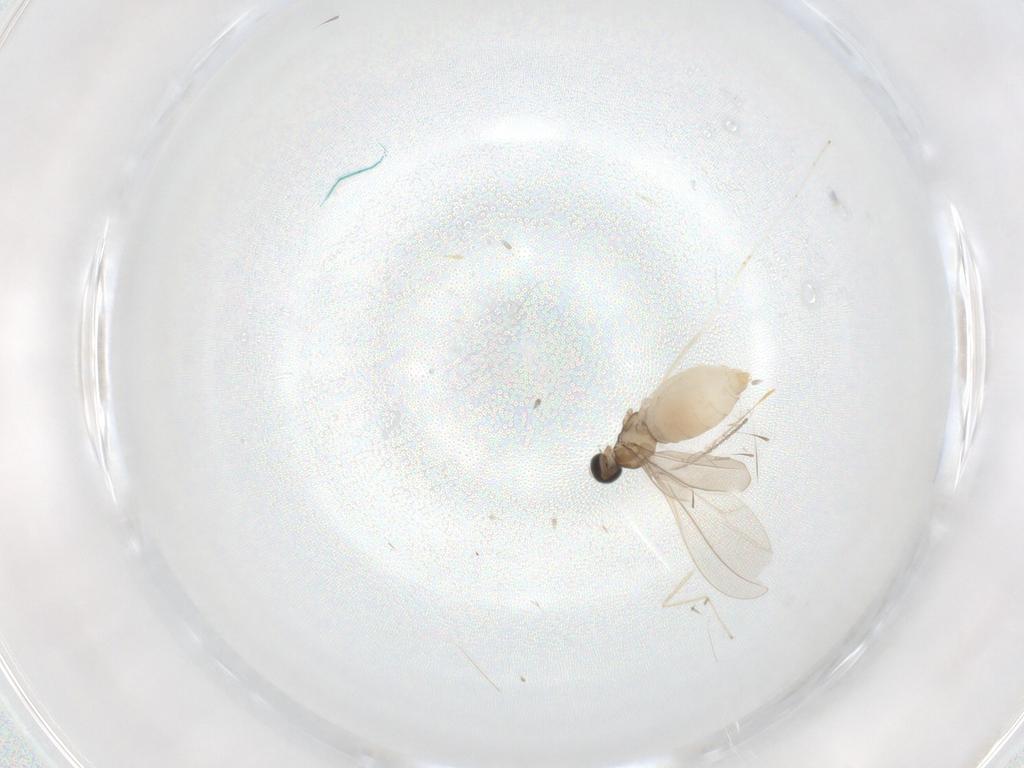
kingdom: Animalia
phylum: Arthropoda
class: Insecta
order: Diptera
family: Cecidomyiidae
